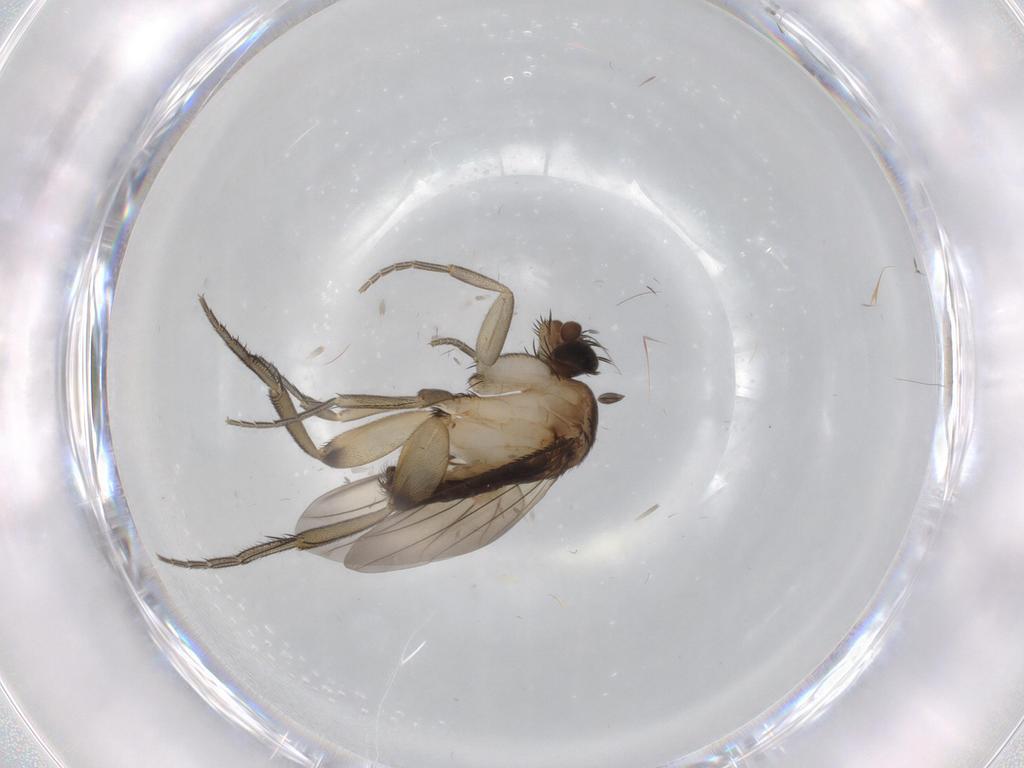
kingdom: Animalia
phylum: Arthropoda
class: Insecta
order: Diptera
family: Phoridae
